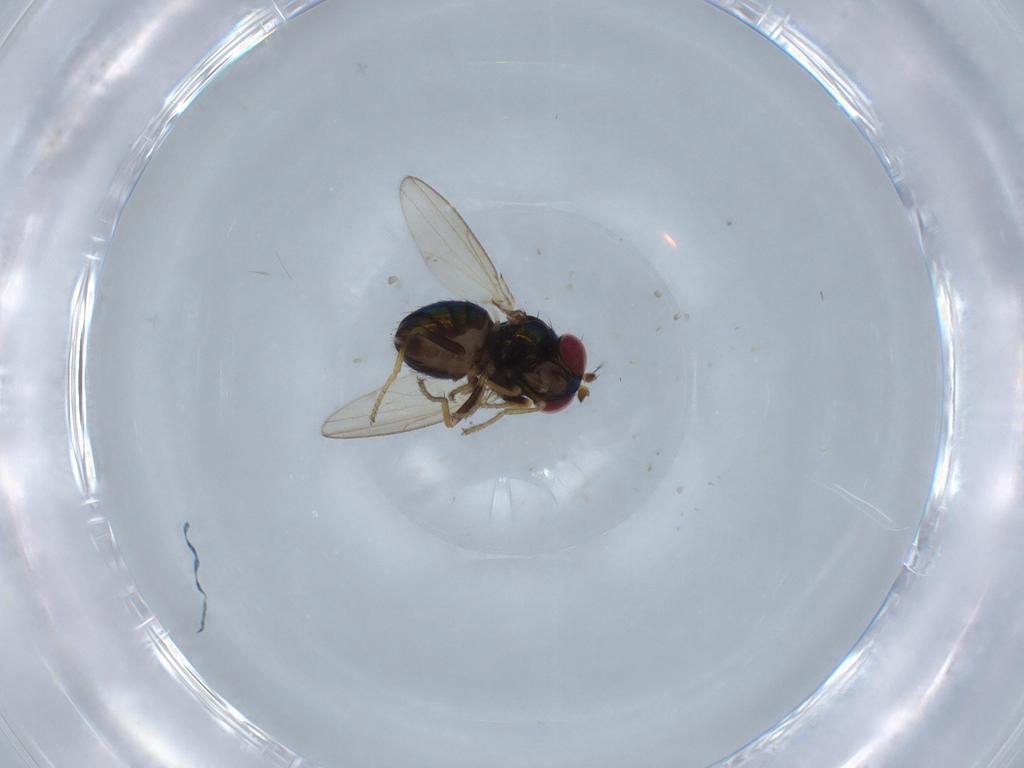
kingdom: Animalia
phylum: Arthropoda
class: Insecta
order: Diptera
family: Ephydridae
